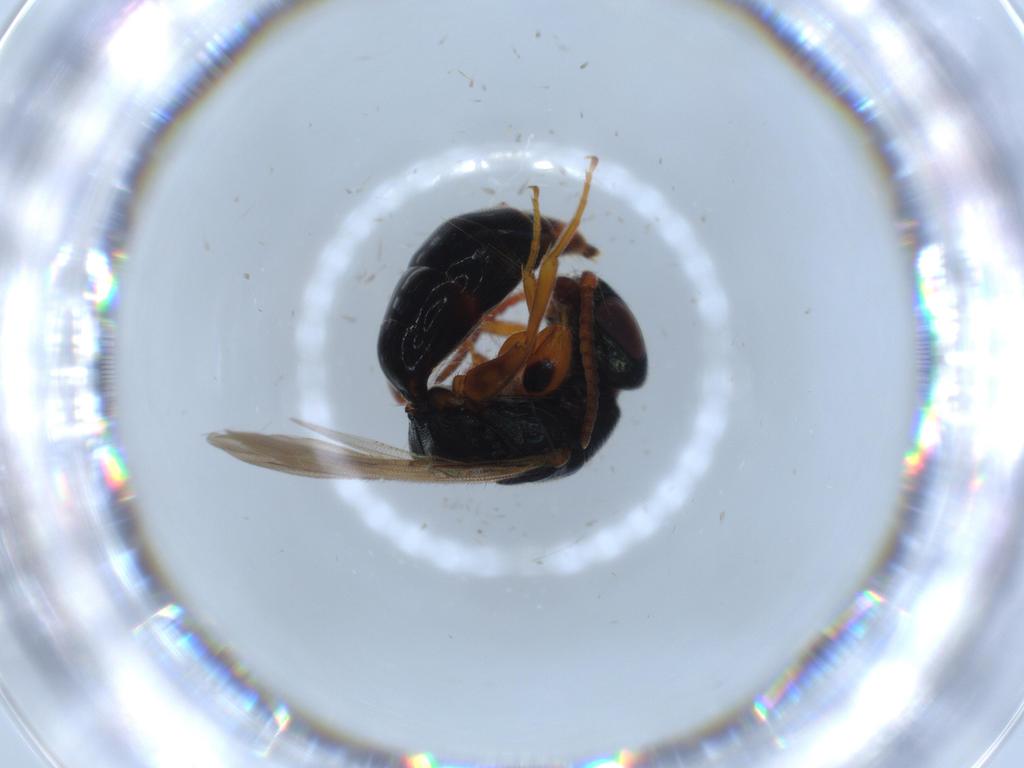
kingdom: Animalia
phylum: Arthropoda
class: Insecta
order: Hymenoptera
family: Bethylidae
